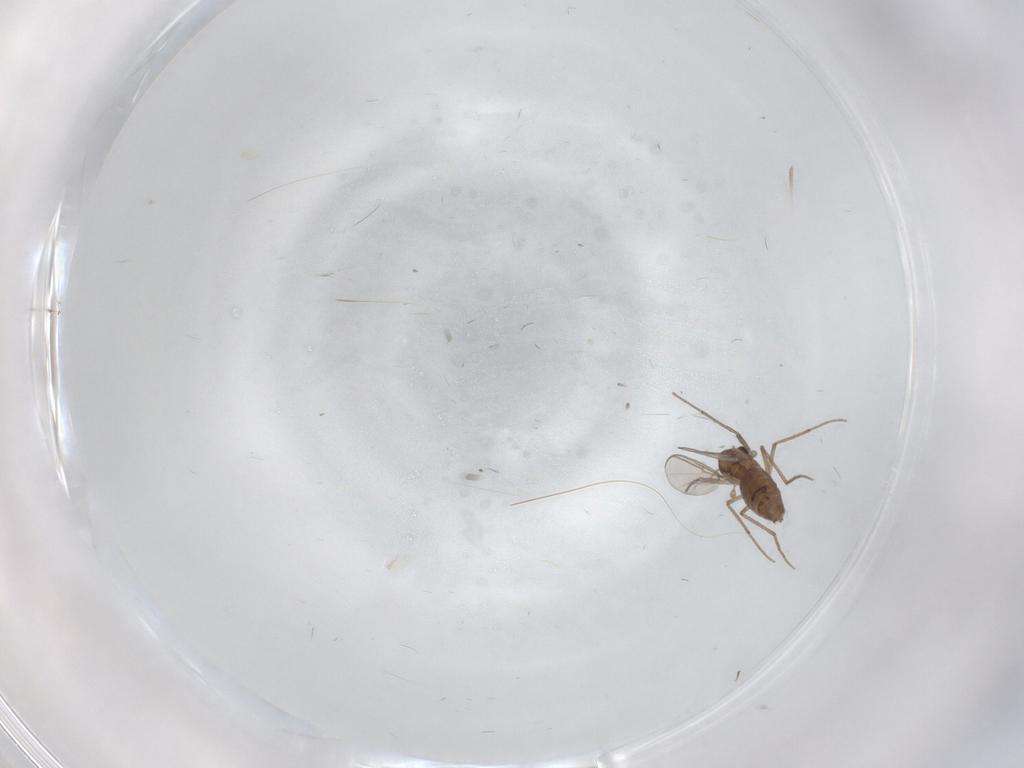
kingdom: Animalia
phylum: Arthropoda
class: Insecta
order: Diptera
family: Chironomidae
